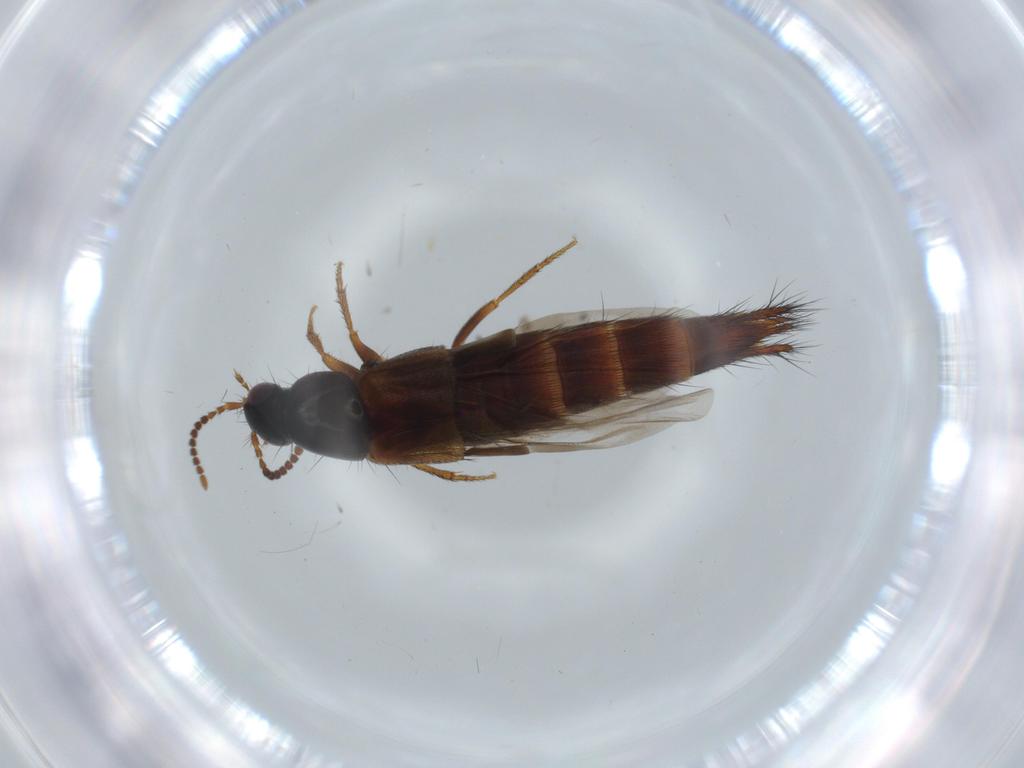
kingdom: Animalia
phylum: Arthropoda
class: Insecta
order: Coleoptera
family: Staphylinidae
